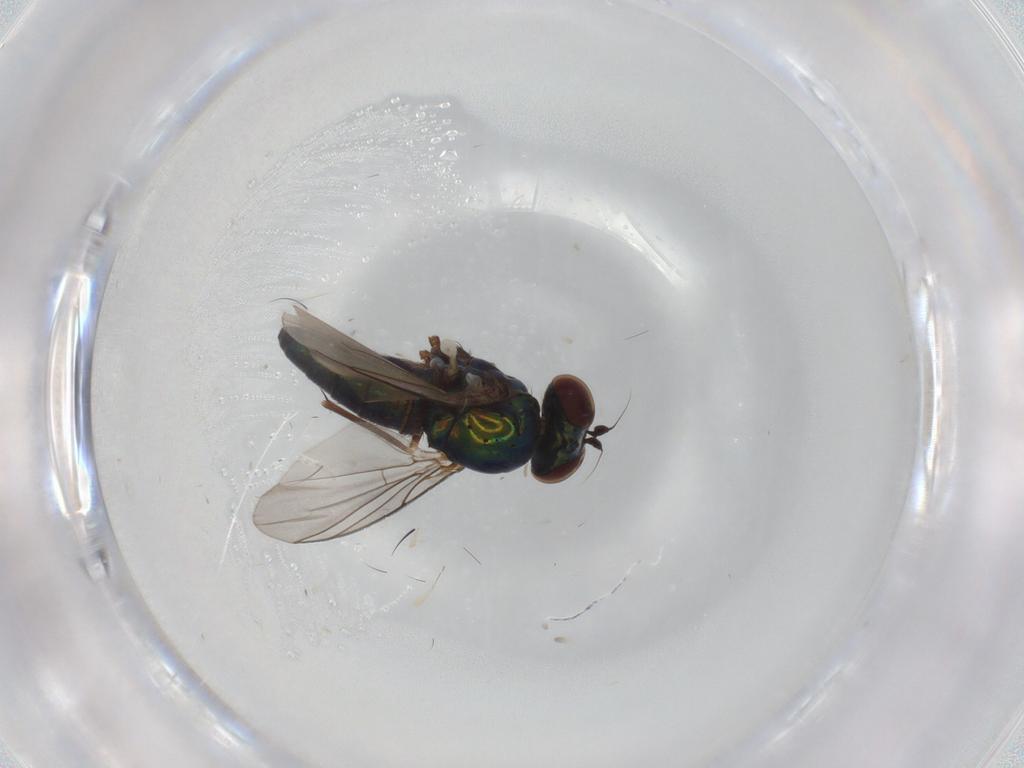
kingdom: Animalia
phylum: Arthropoda
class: Insecta
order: Diptera
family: Dolichopodidae
